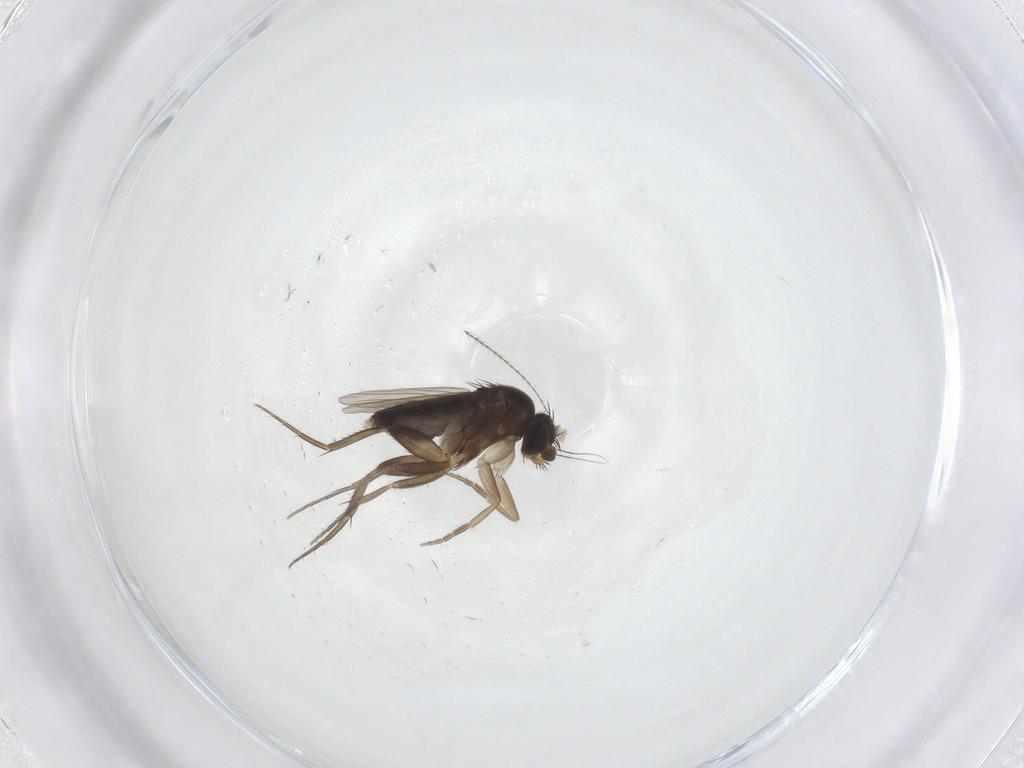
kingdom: Animalia
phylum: Arthropoda
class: Insecta
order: Diptera
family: Phoridae
